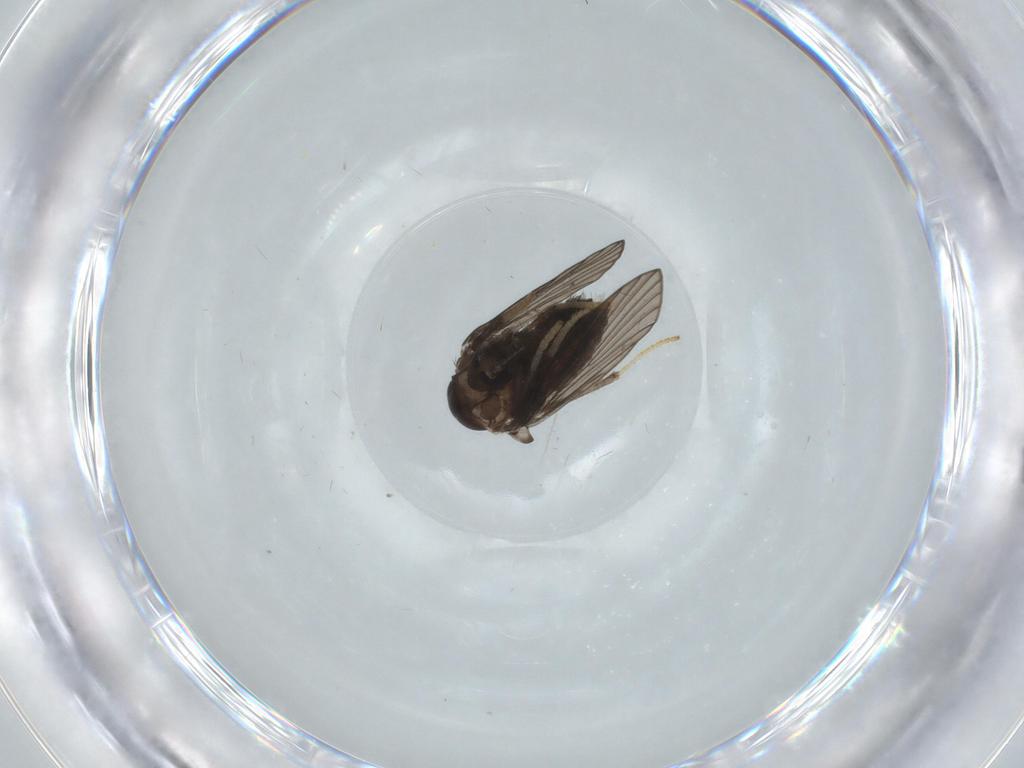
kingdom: Animalia
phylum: Arthropoda
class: Insecta
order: Diptera
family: Psychodidae
